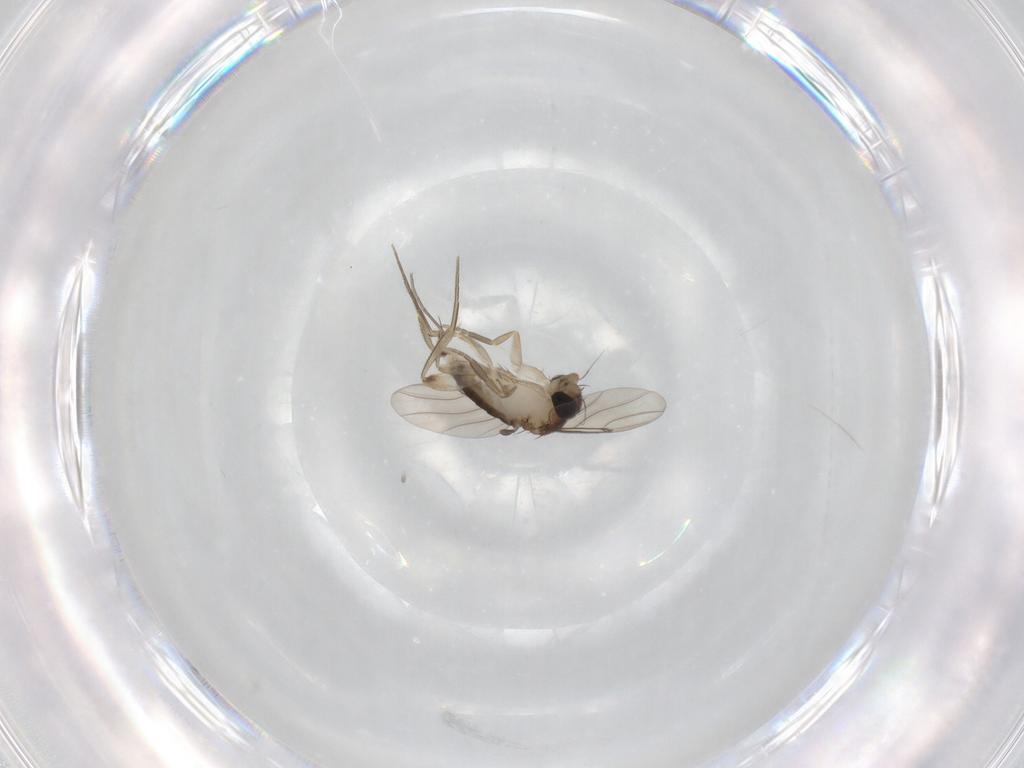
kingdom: Animalia
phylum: Arthropoda
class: Insecta
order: Diptera
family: Phoridae
